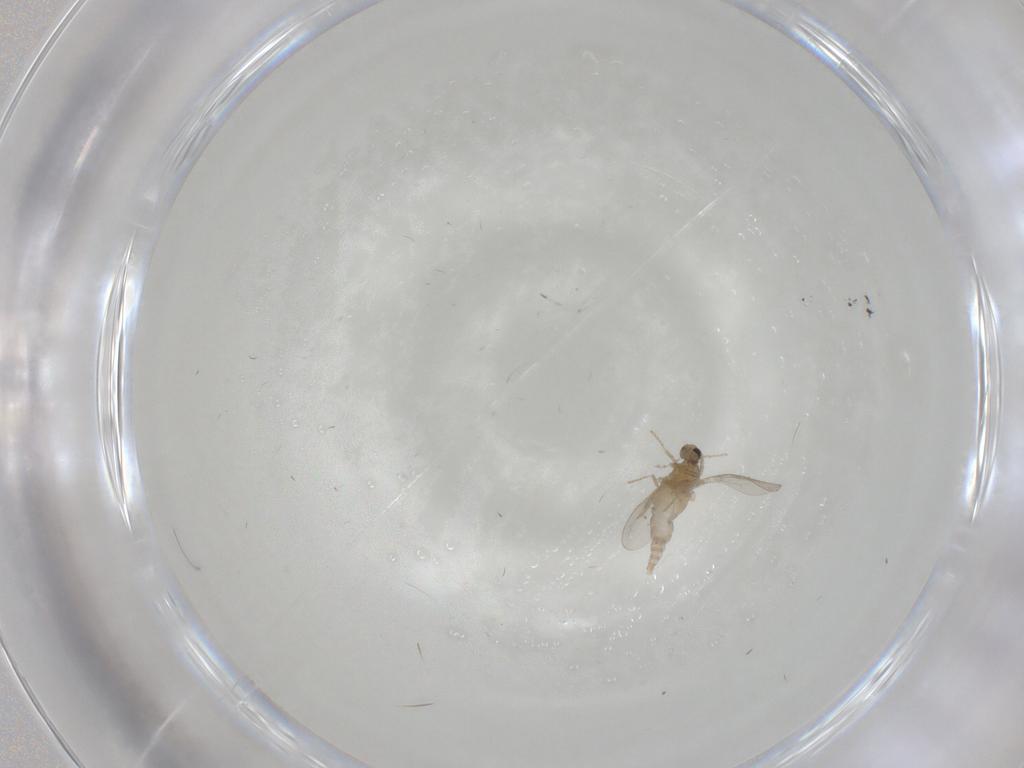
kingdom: Animalia
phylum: Arthropoda
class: Insecta
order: Diptera
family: Cecidomyiidae
